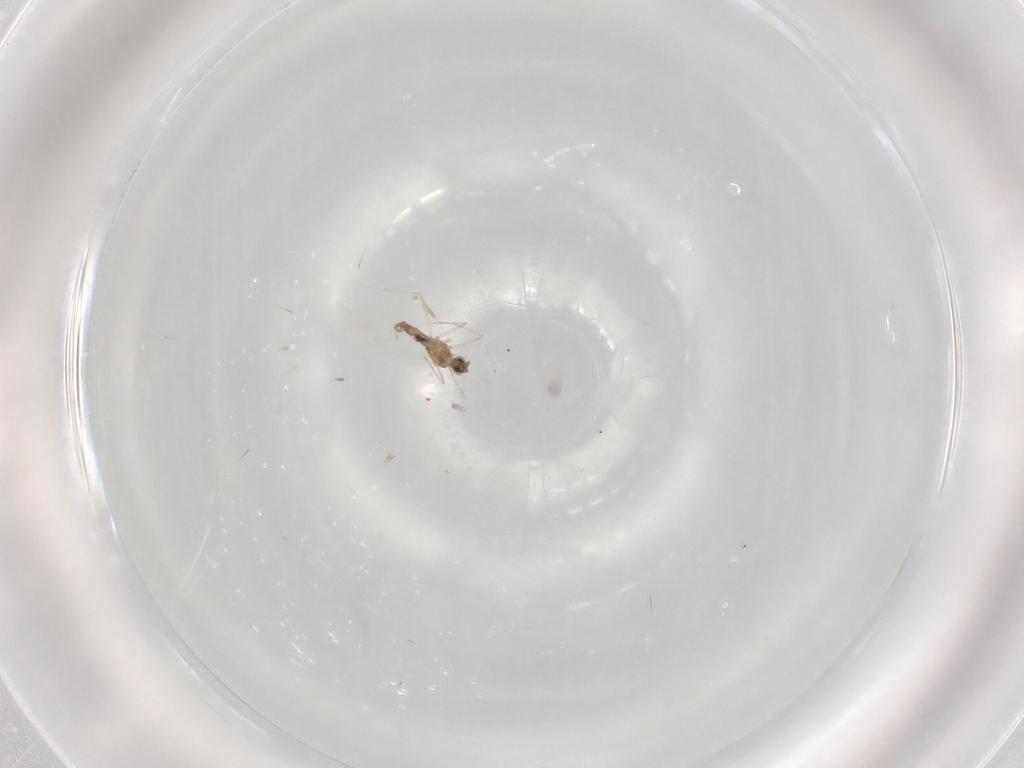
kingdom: Animalia
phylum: Arthropoda
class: Insecta
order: Diptera
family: Cecidomyiidae
